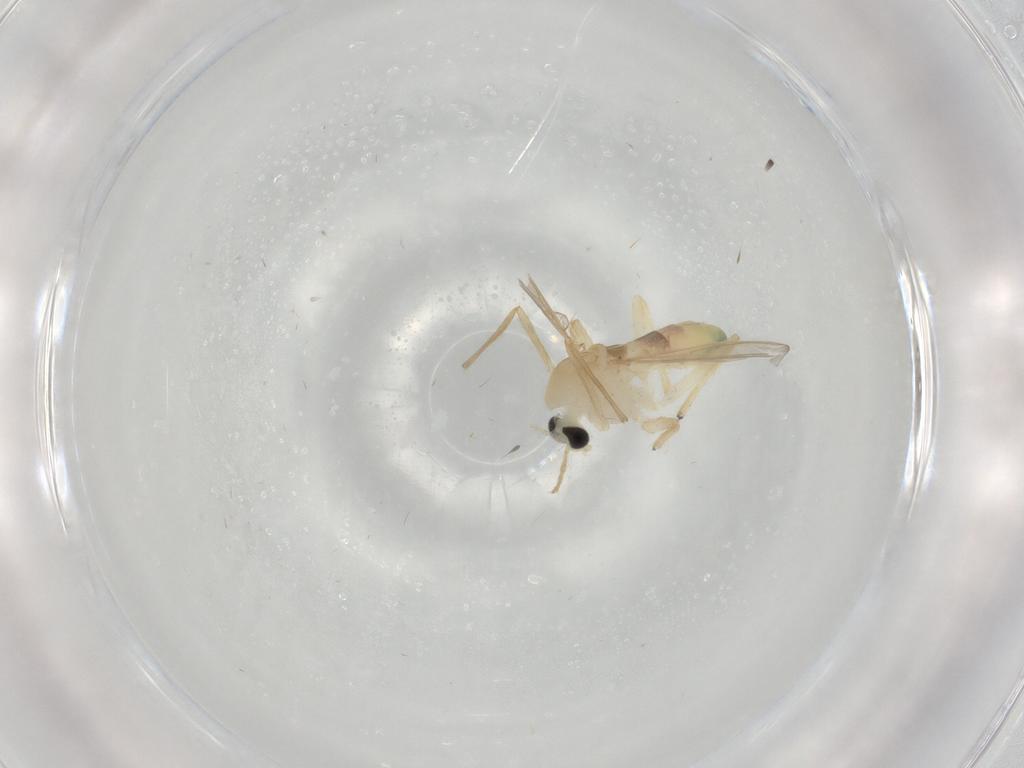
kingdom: Animalia
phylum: Arthropoda
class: Insecta
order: Diptera
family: Chironomidae
